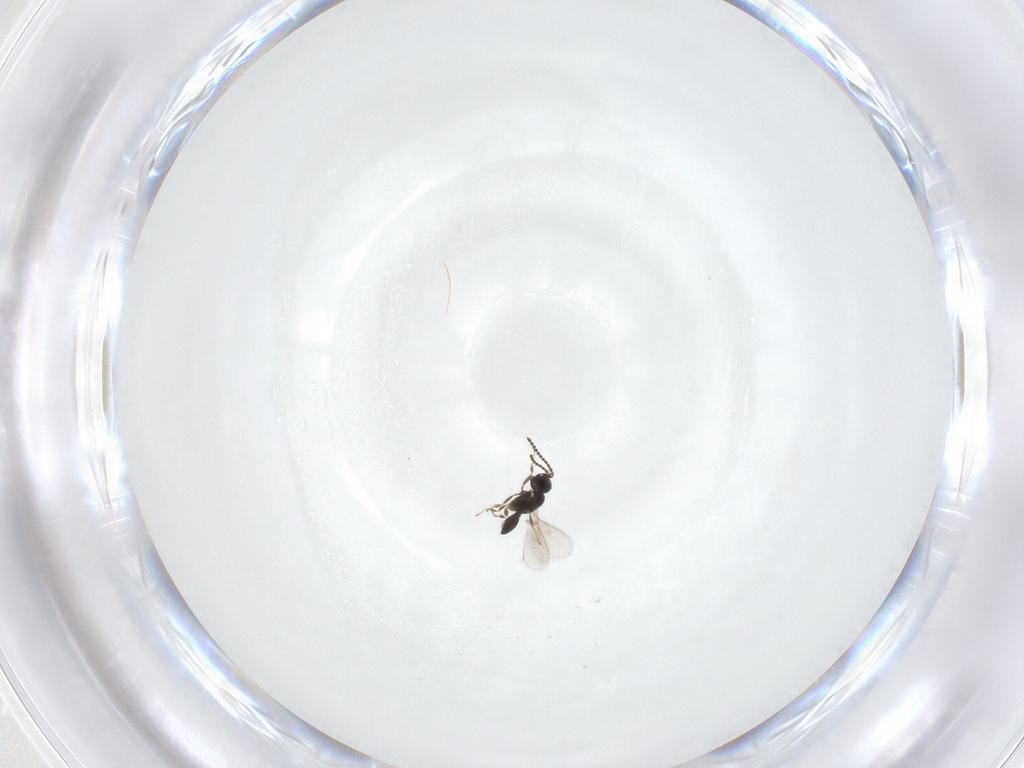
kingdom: Animalia
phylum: Arthropoda
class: Insecta
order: Hymenoptera
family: Scelionidae
